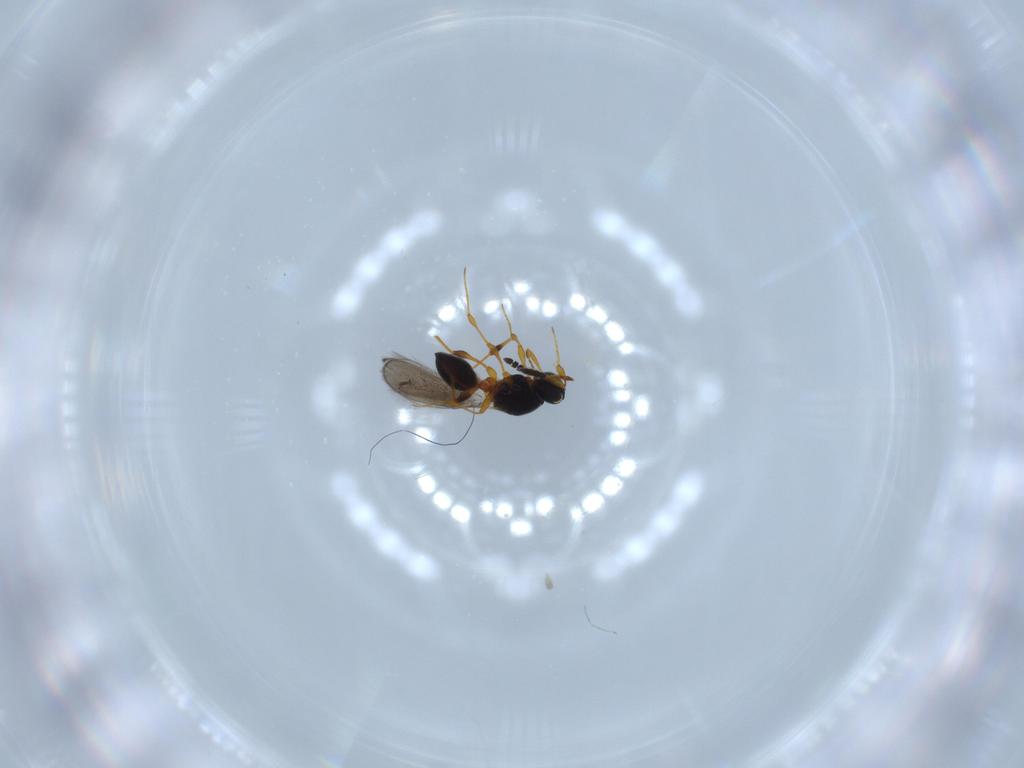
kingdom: Animalia
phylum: Arthropoda
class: Insecta
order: Hymenoptera
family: Platygastridae
